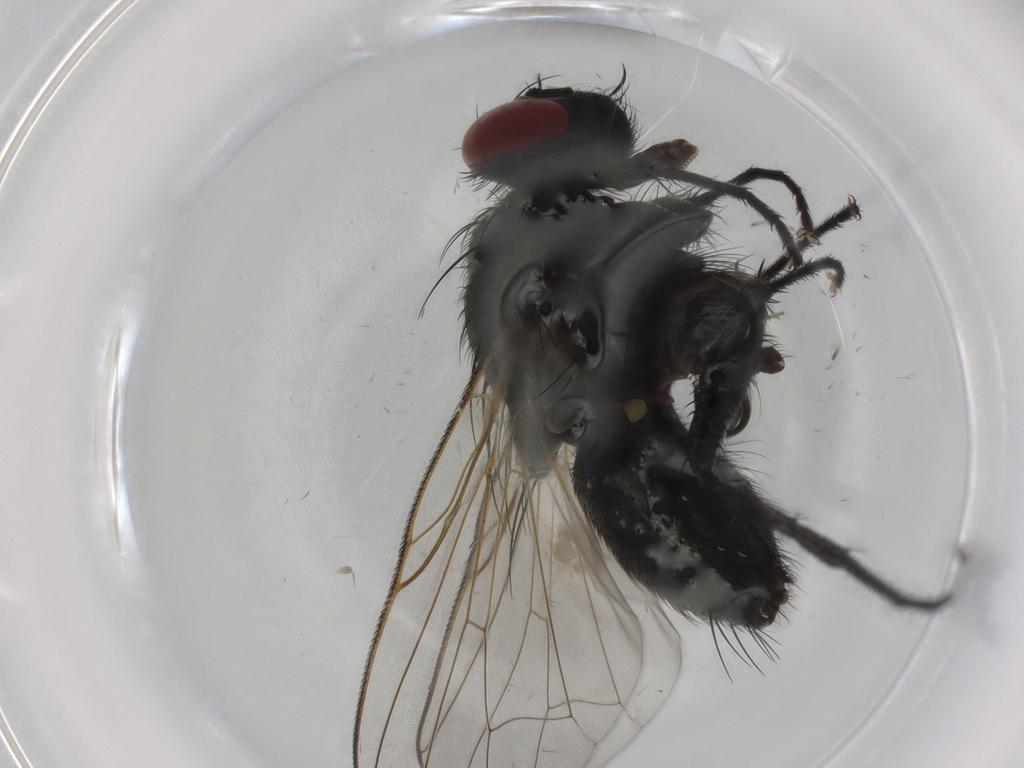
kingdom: Animalia
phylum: Arthropoda
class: Insecta
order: Diptera
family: Muscidae
